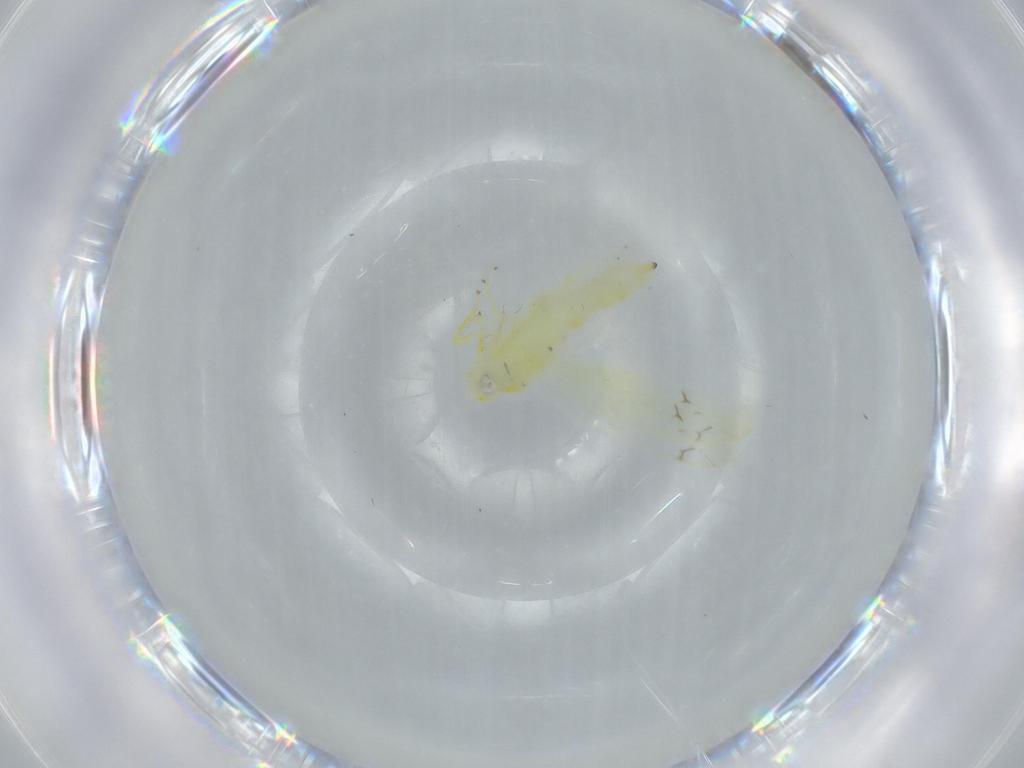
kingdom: Animalia
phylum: Arthropoda
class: Insecta
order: Hemiptera
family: Cicadellidae
